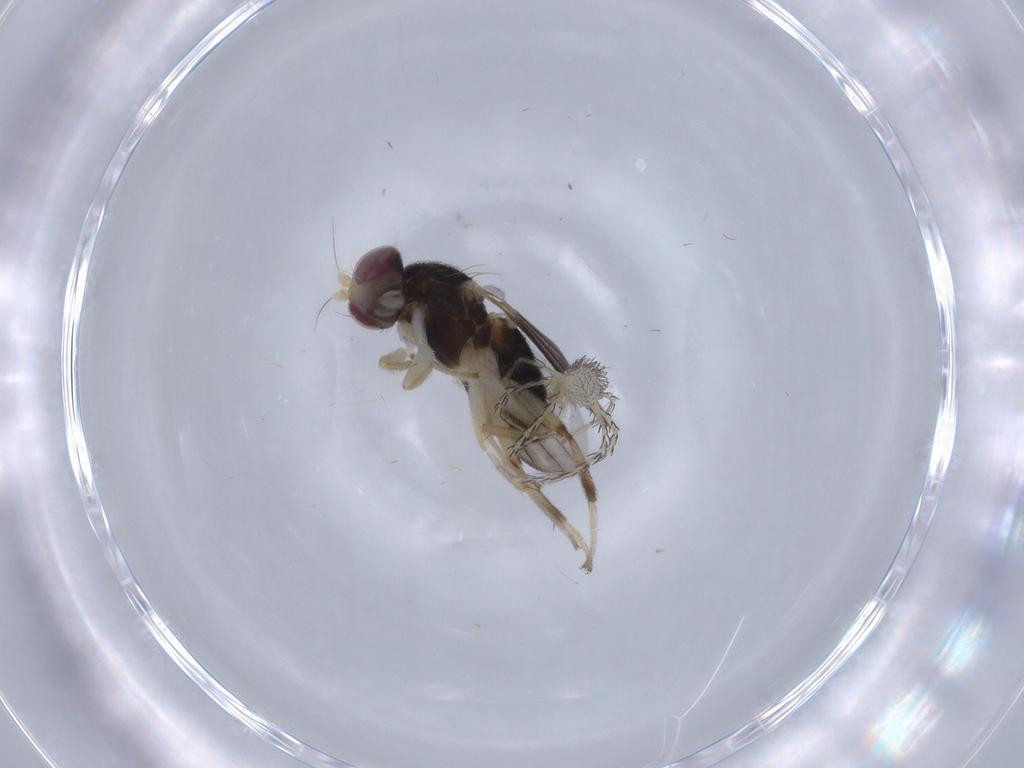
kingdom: Animalia
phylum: Arthropoda
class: Insecta
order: Diptera
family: Clusiidae
